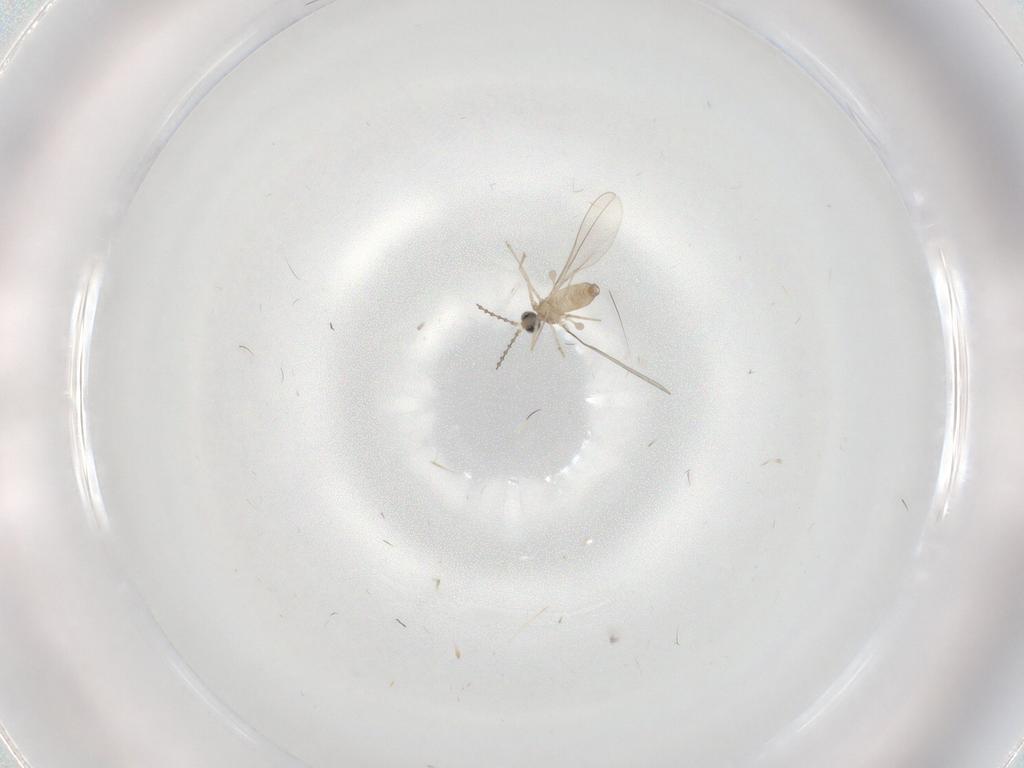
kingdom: Animalia
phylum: Arthropoda
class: Insecta
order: Diptera
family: Cecidomyiidae
